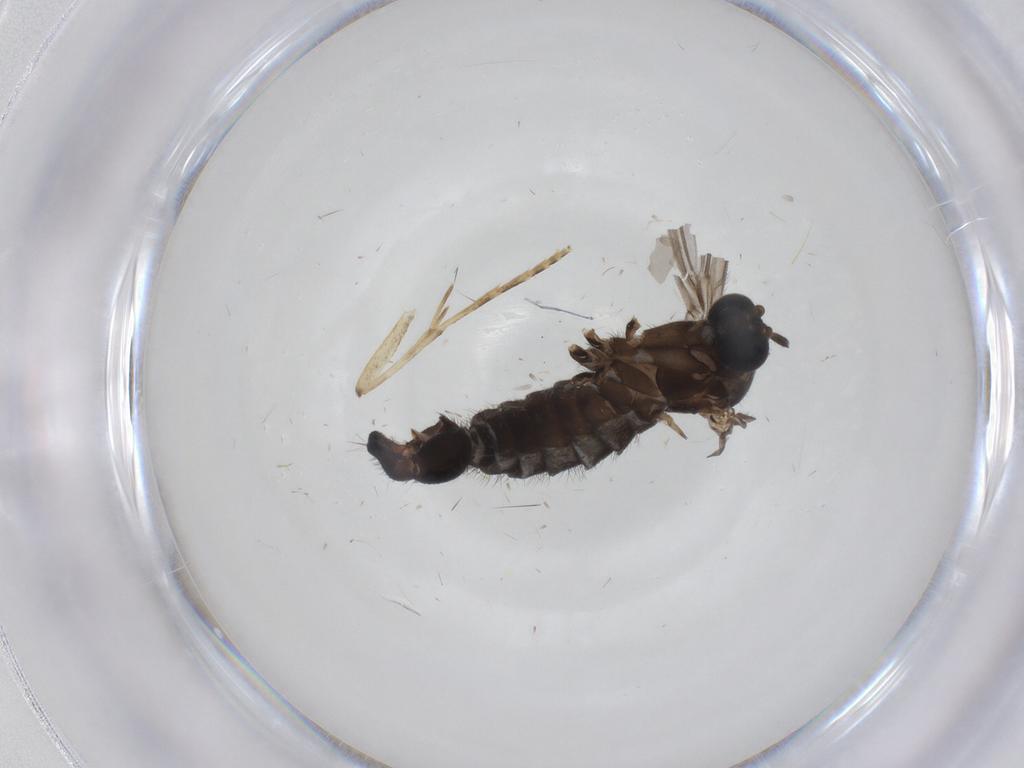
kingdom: Animalia
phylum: Arthropoda
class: Insecta
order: Diptera
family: Sciaridae
